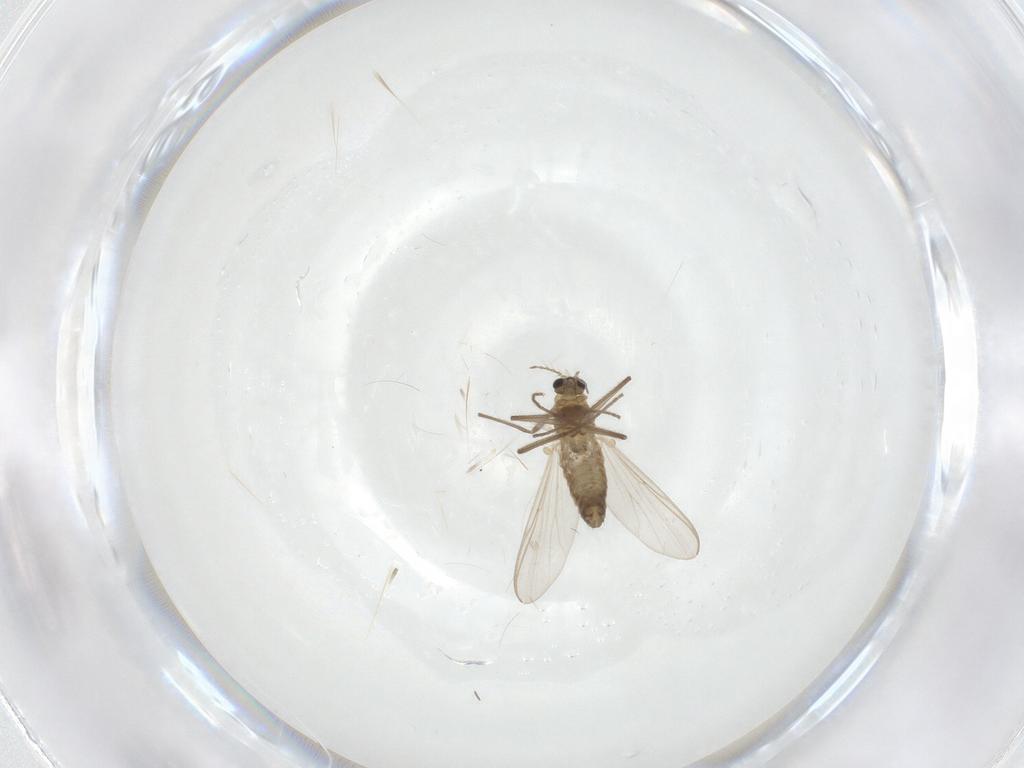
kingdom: Animalia
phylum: Arthropoda
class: Insecta
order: Diptera
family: Chironomidae
